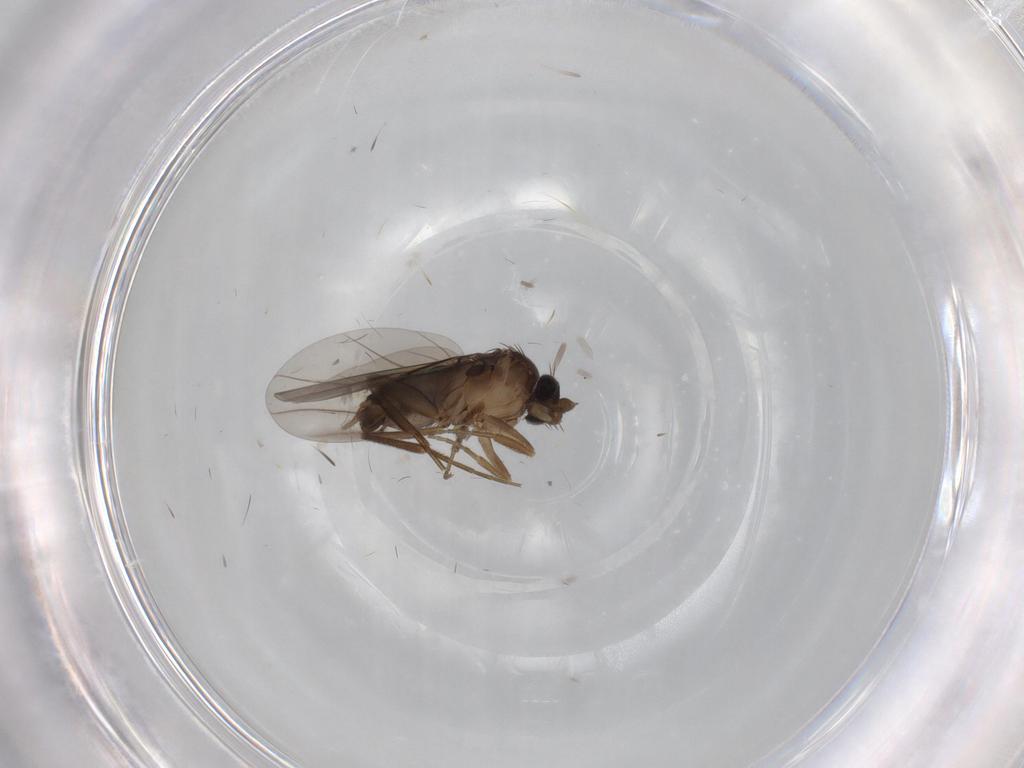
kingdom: Animalia
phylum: Arthropoda
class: Insecta
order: Diptera
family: Phoridae
